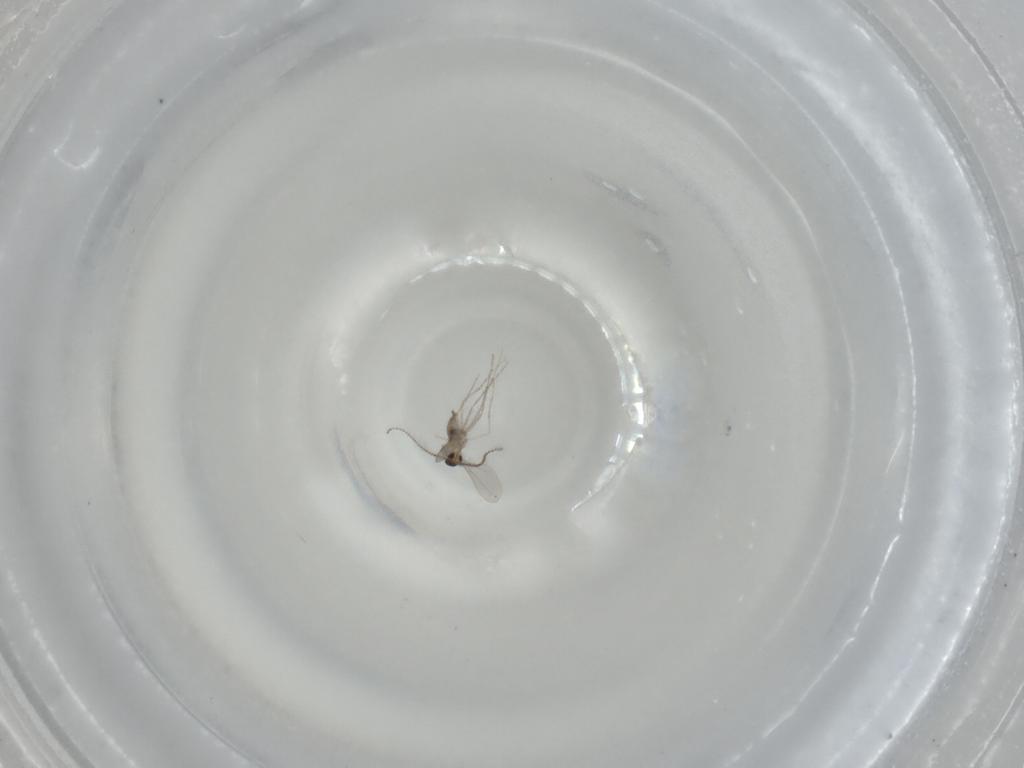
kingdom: Animalia
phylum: Arthropoda
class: Insecta
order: Diptera
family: Cecidomyiidae
